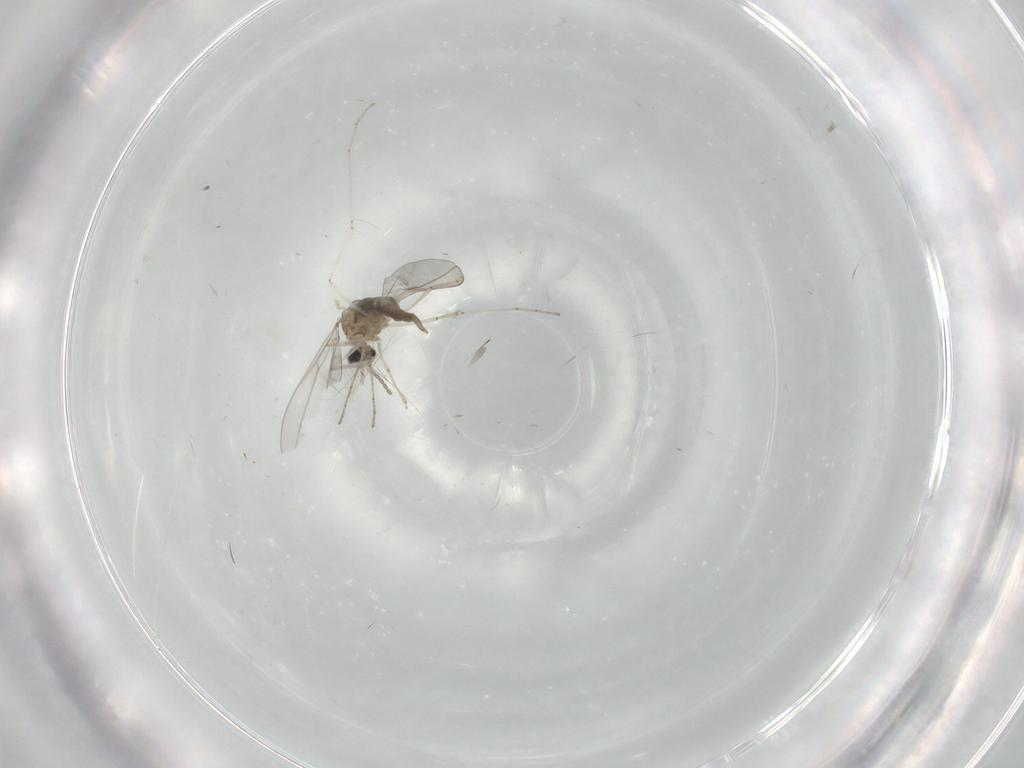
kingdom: Animalia
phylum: Arthropoda
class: Insecta
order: Diptera
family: Cecidomyiidae
